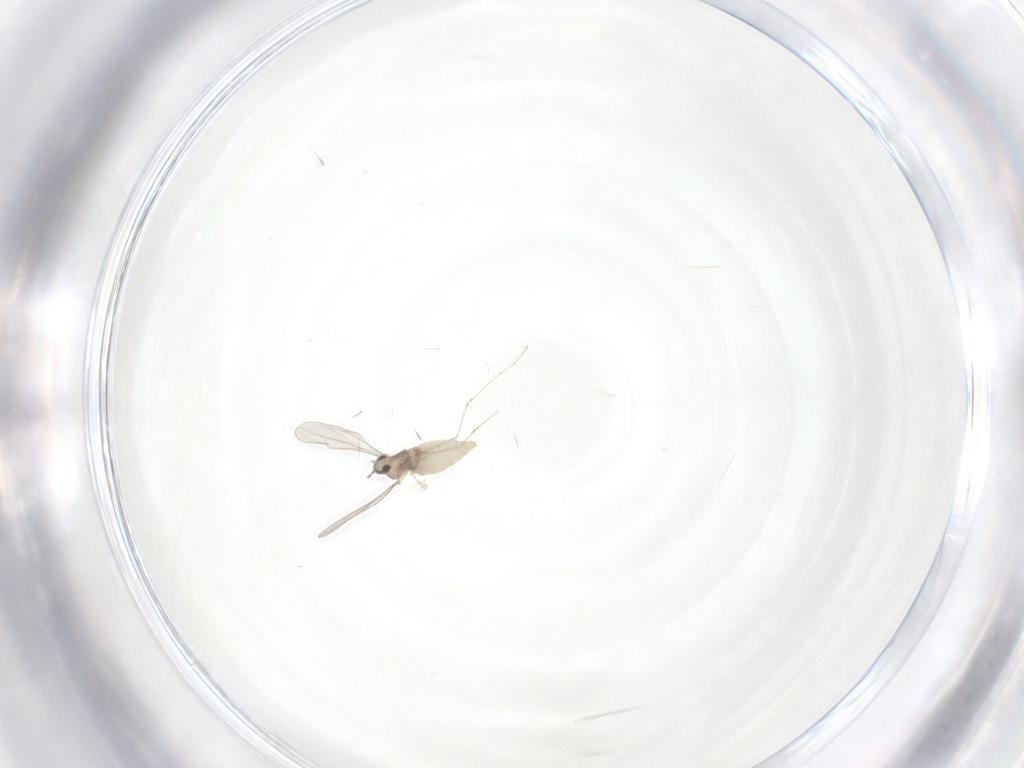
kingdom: Animalia
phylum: Arthropoda
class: Insecta
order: Diptera
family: Cecidomyiidae
